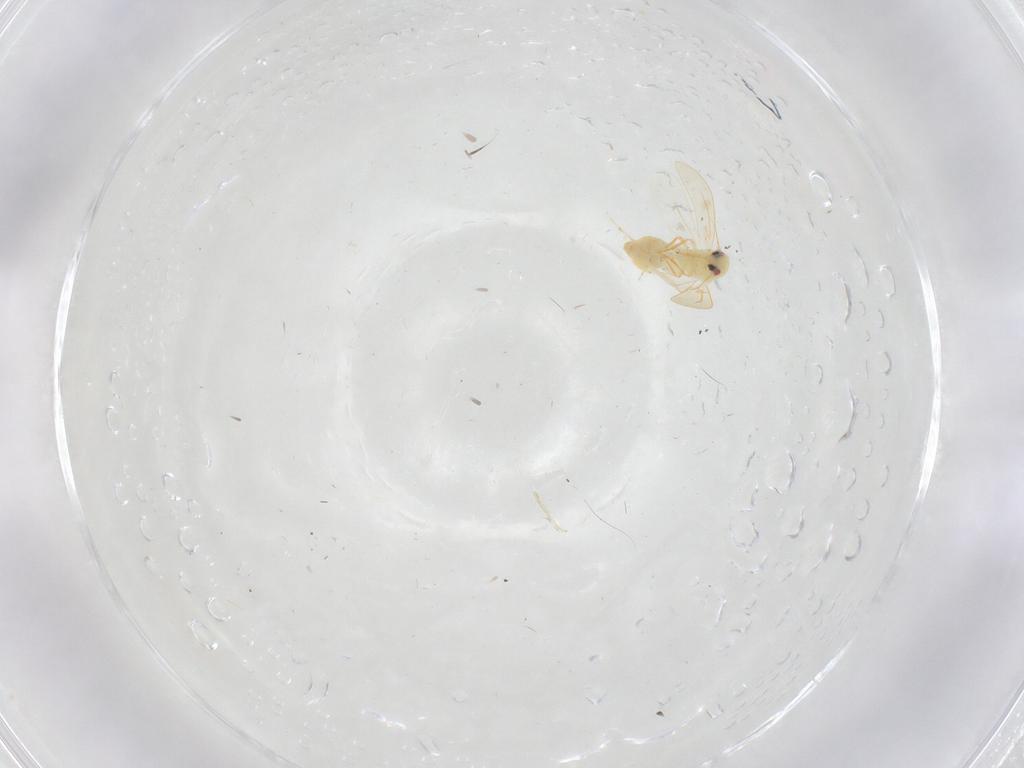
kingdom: Animalia
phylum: Arthropoda
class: Insecta
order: Hemiptera
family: Aleyrodidae
